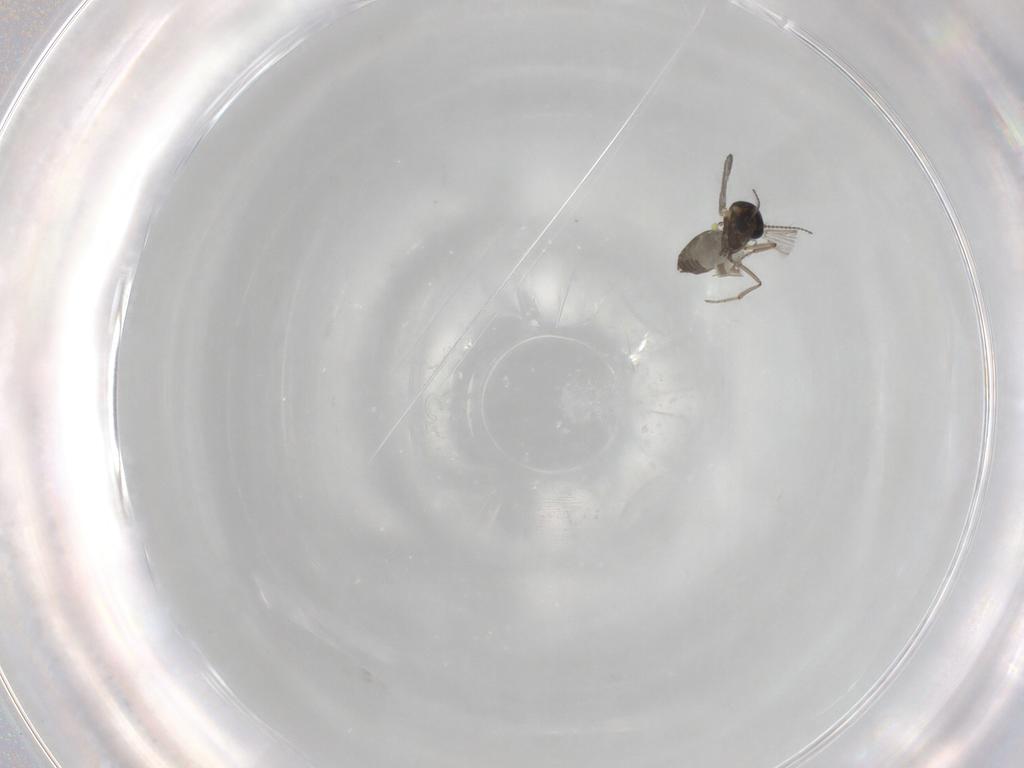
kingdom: Animalia
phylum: Arthropoda
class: Insecta
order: Diptera
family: Ceratopogonidae
